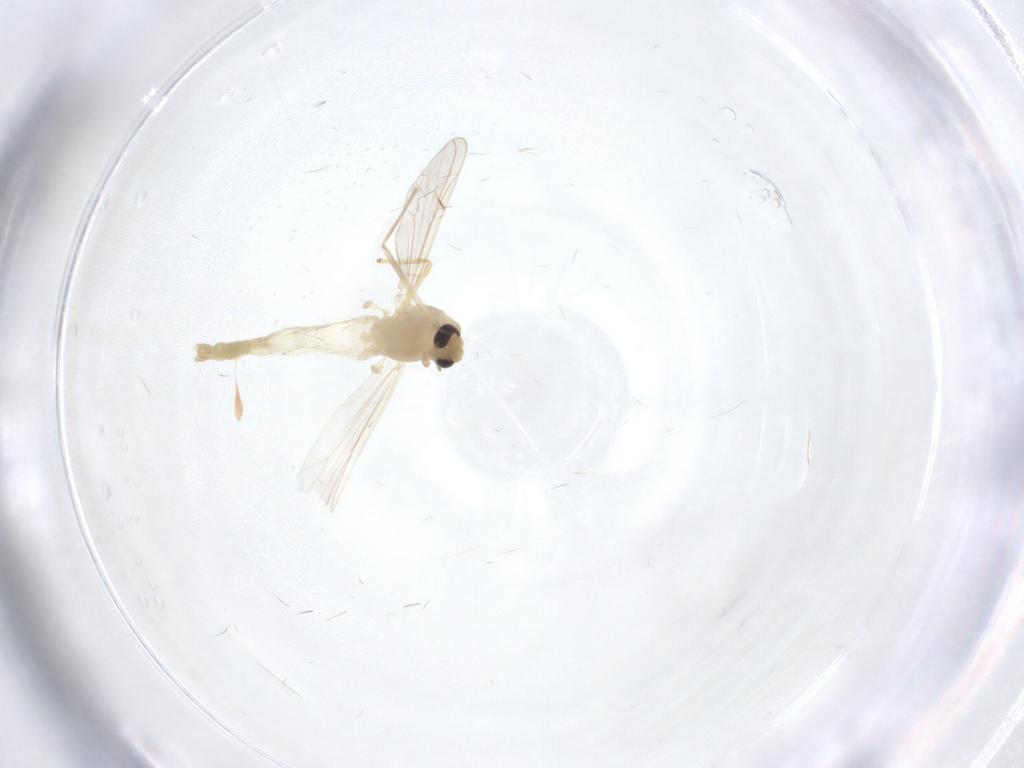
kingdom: Animalia
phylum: Arthropoda
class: Insecta
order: Diptera
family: Chironomidae
